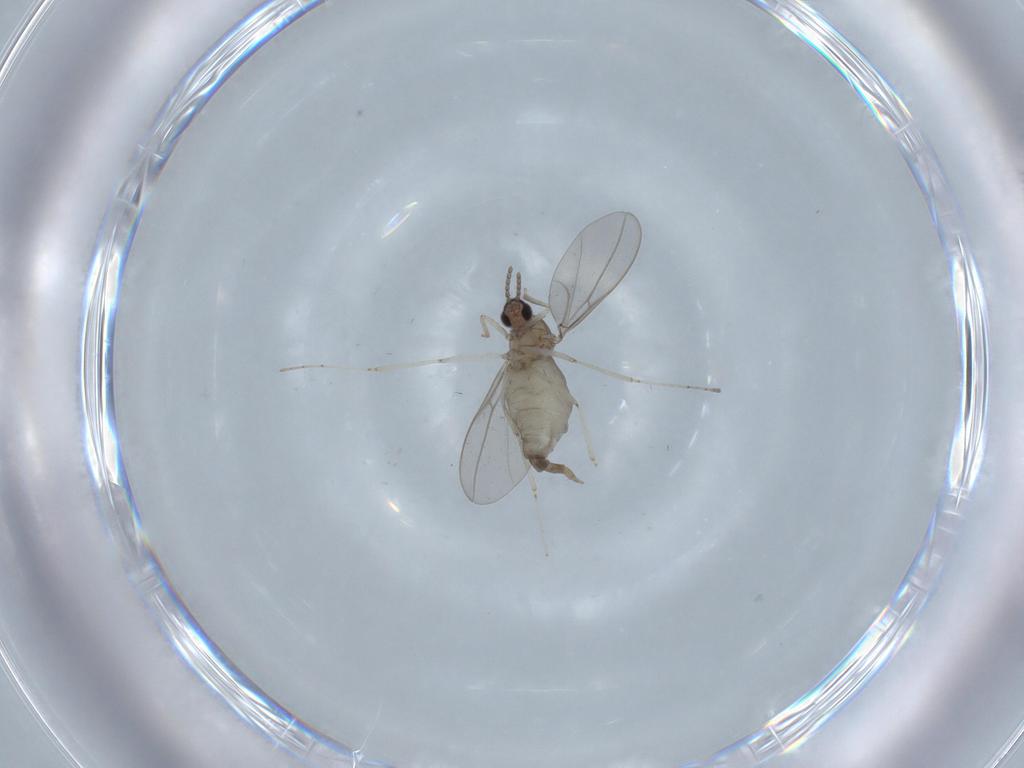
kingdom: Animalia
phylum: Arthropoda
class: Insecta
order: Diptera
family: Cecidomyiidae
